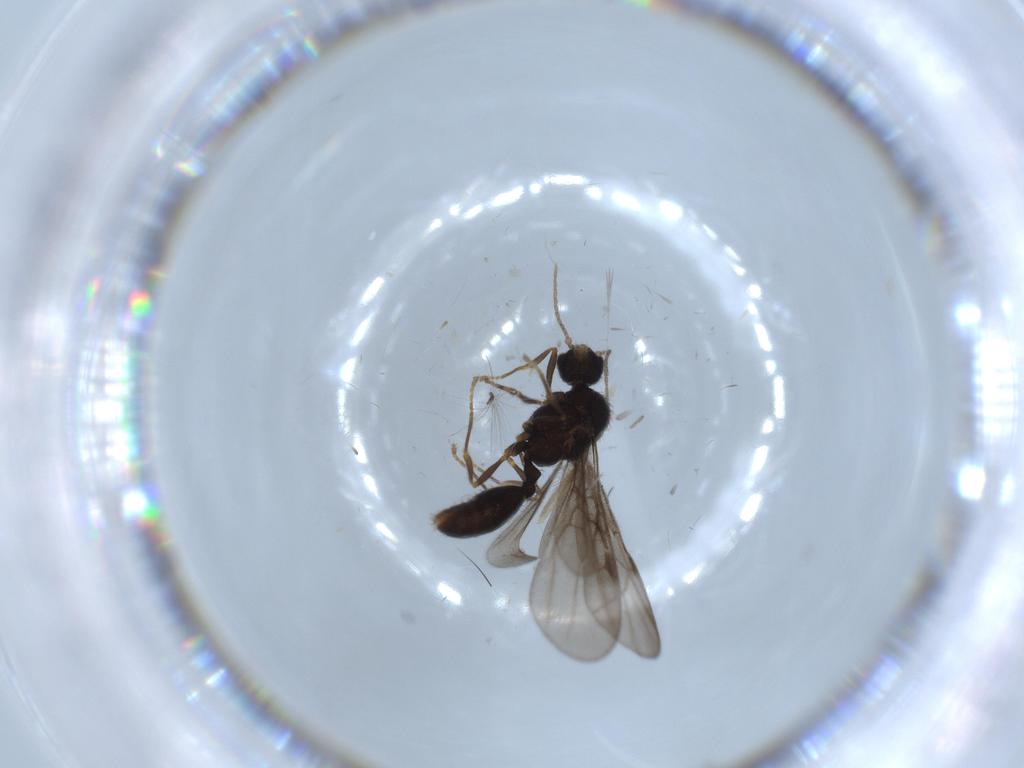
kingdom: Animalia
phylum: Arthropoda
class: Insecta
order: Hymenoptera
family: Formicidae
